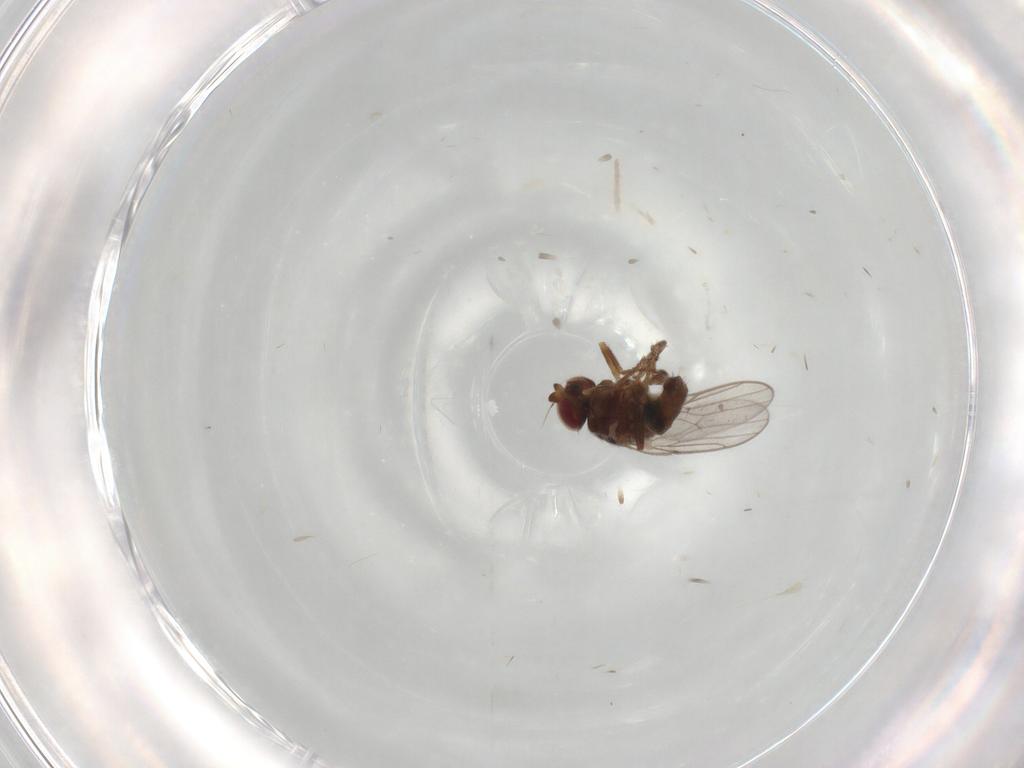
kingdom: Animalia
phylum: Arthropoda
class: Insecta
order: Diptera
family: Chloropidae
